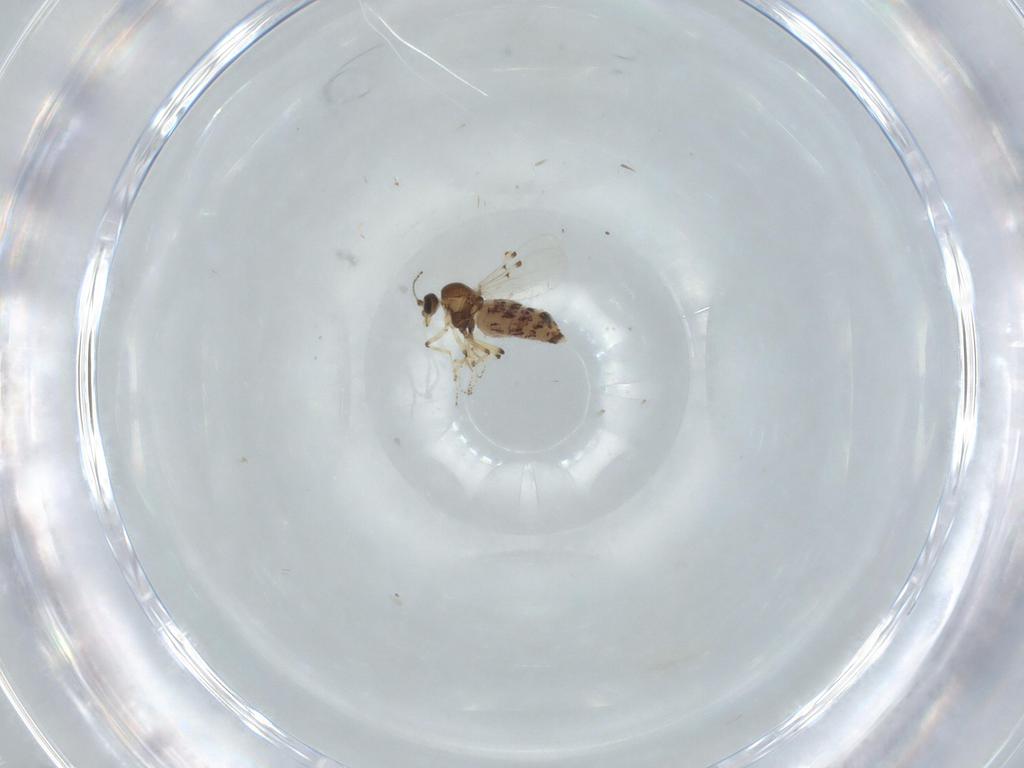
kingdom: Animalia
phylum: Arthropoda
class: Insecta
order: Diptera
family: Ceratopogonidae
